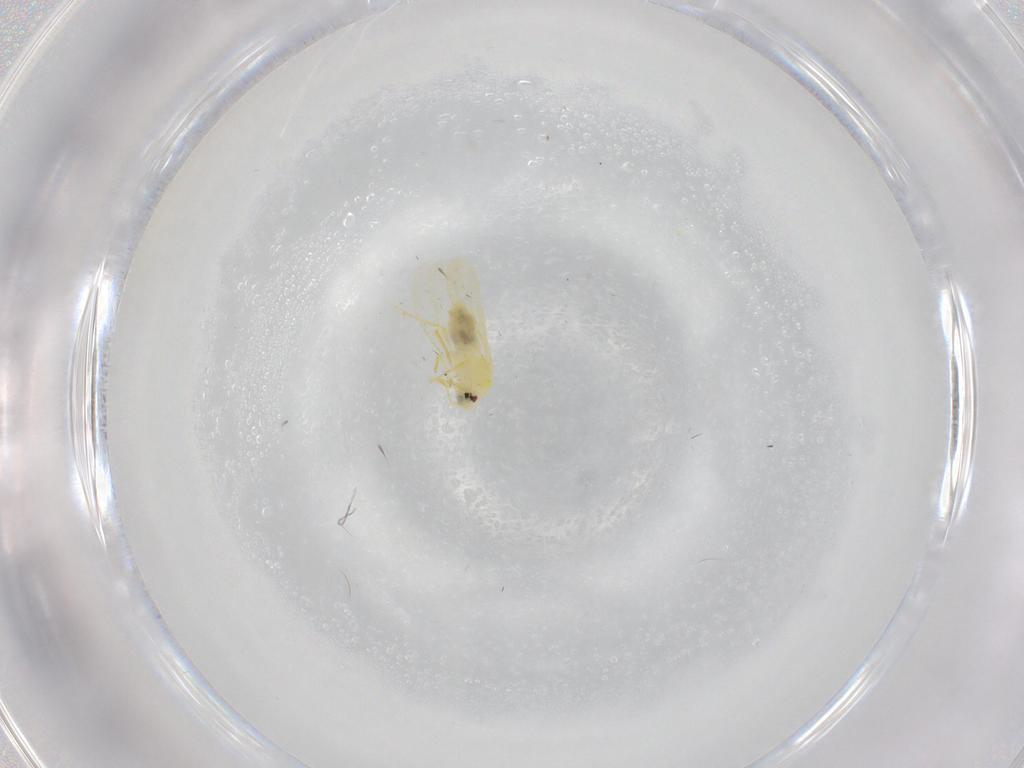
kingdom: Animalia
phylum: Arthropoda
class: Insecta
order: Hemiptera
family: Aleyrodidae
